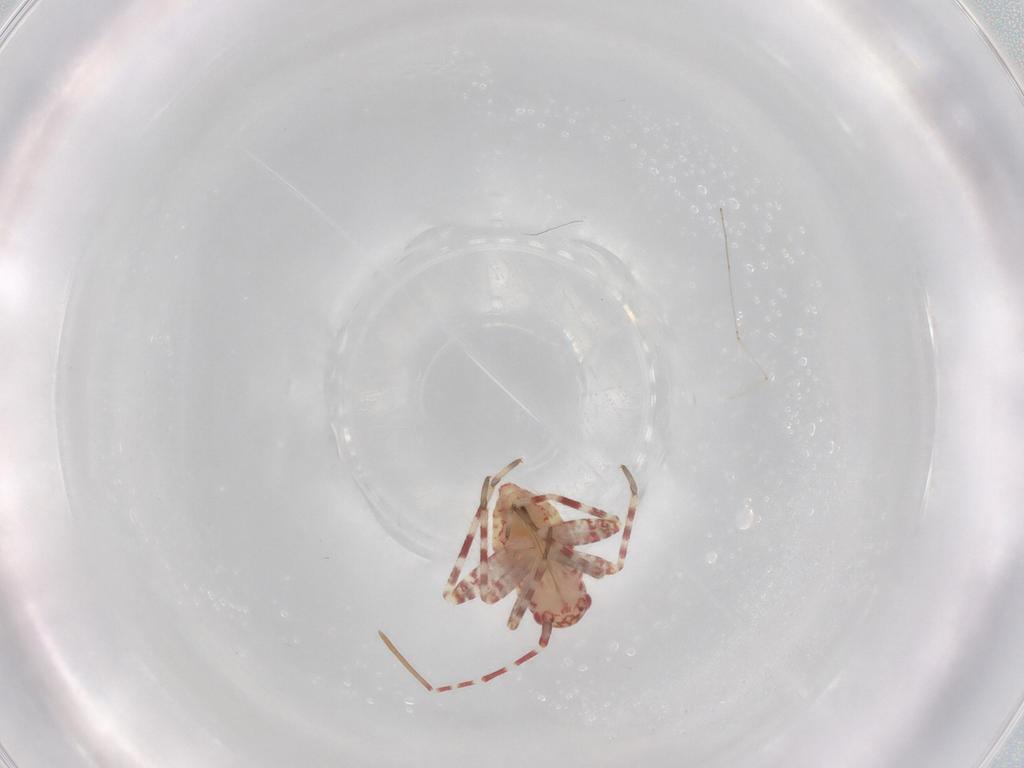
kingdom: Animalia
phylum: Arthropoda
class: Insecta
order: Hemiptera
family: Miridae
